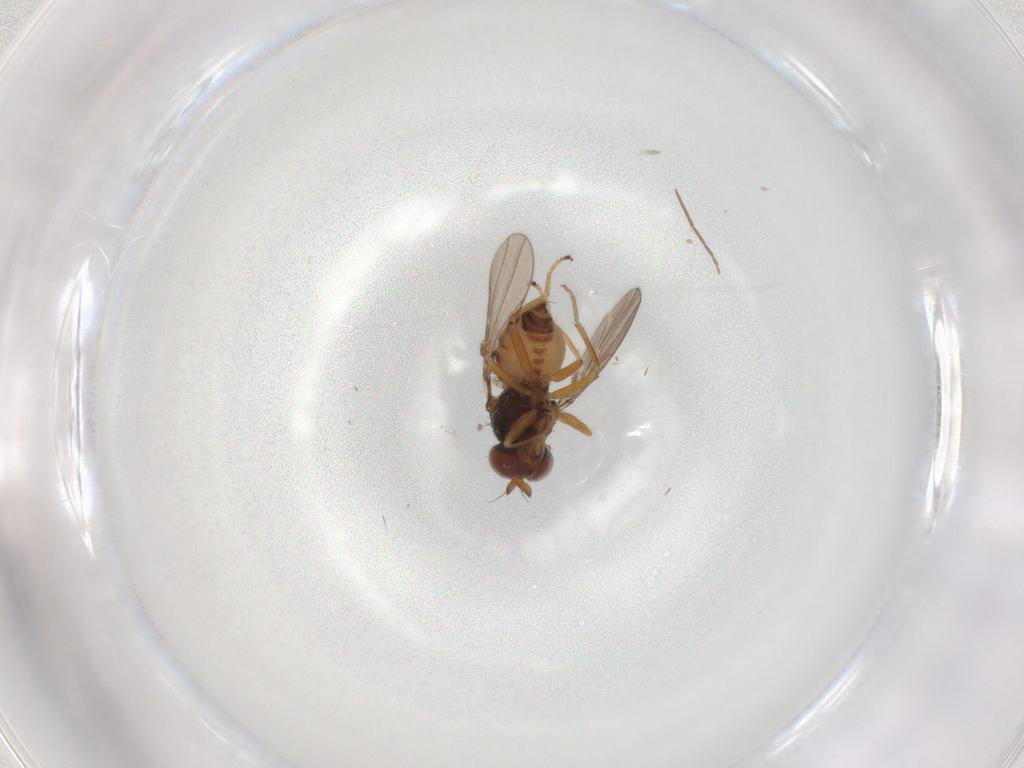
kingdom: Animalia
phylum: Arthropoda
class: Insecta
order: Diptera
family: Ephydridae
